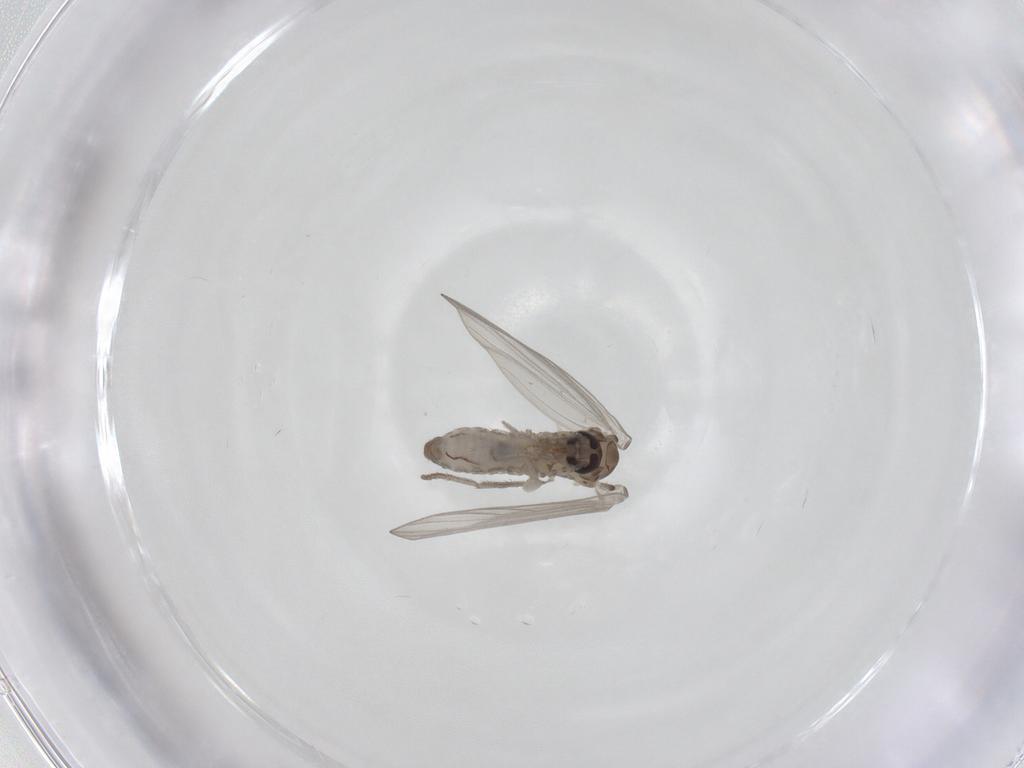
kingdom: Animalia
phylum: Arthropoda
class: Insecta
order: Diptera
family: Psychodidae
